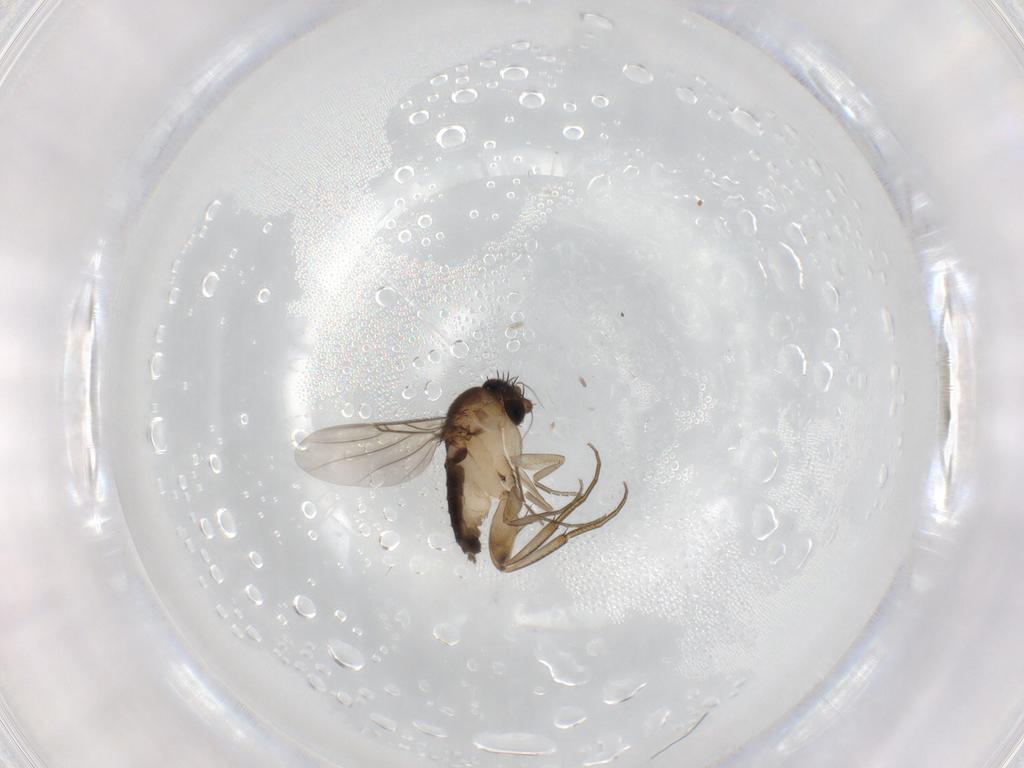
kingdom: Animalia
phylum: Arthropoda
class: Insecta
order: Diptera
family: Phoridae
